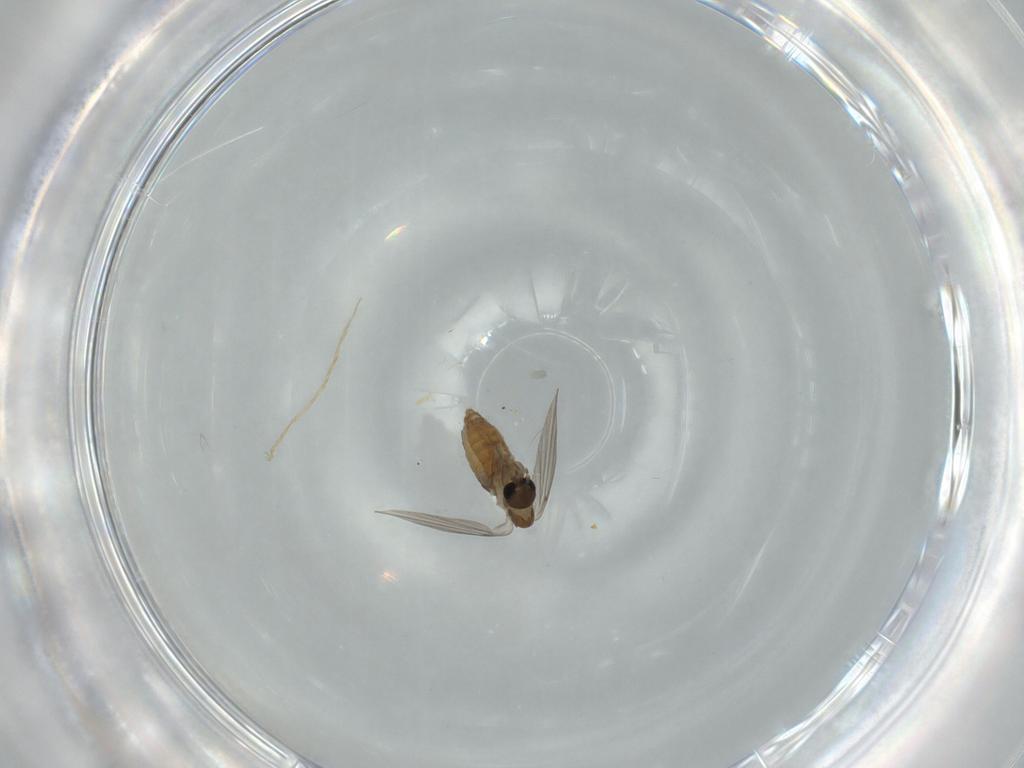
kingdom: Animalia
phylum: Arthropoda
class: Insecta
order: Diptera
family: Psychodidae
